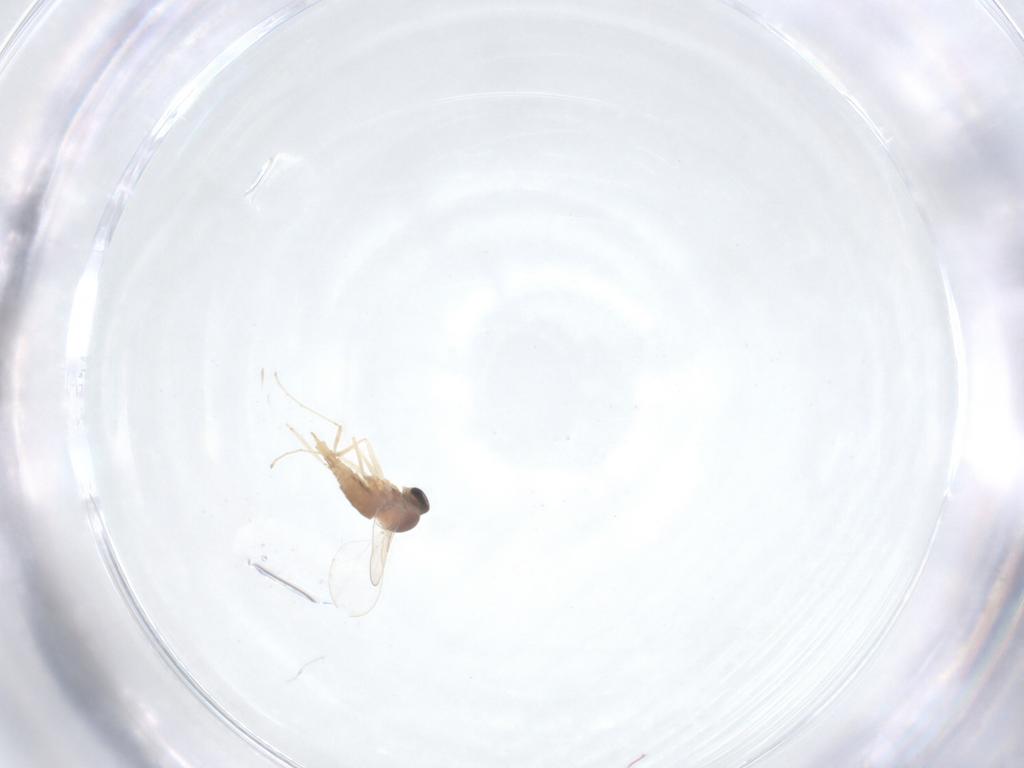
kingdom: Animalia
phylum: Arthropoda
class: Insecta
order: Diptera
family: Cecidomyiidae
